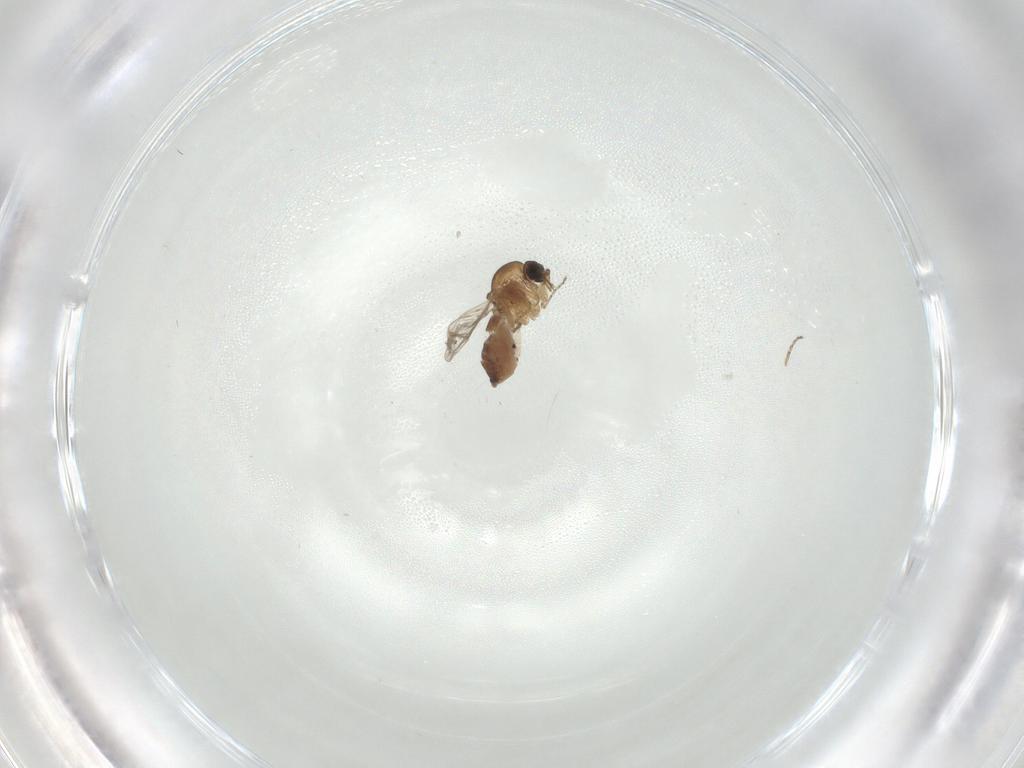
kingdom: Animalia
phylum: Arthropoda
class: Insecta
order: Diptera
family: Ceratopogonidae
